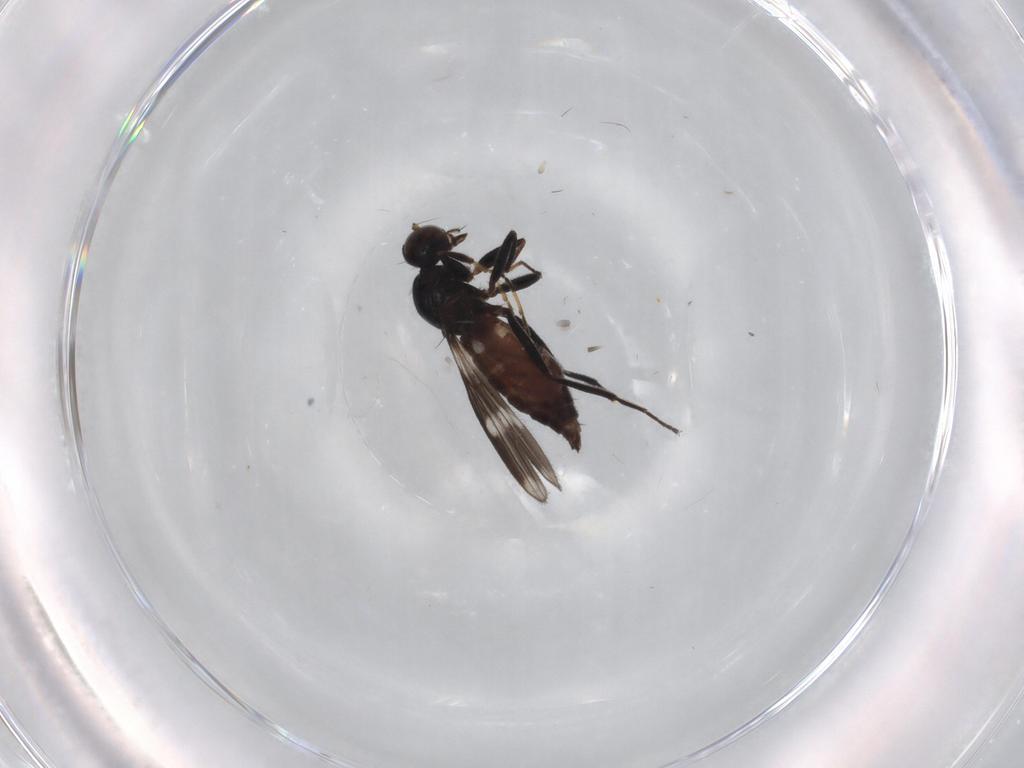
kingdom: Animalia
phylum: Arthropoda
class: Insecta
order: Diptera
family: Hybotidae
